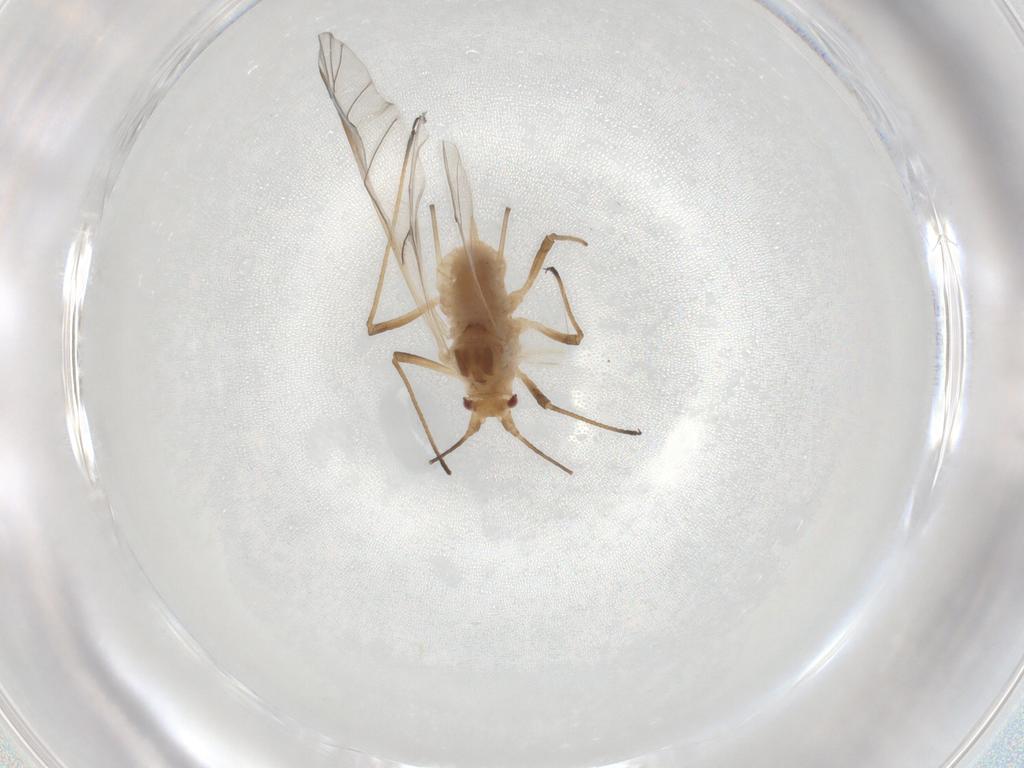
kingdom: Animalia
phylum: Arthropoda
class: Insecta
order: Hemiptera
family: Aphididae
